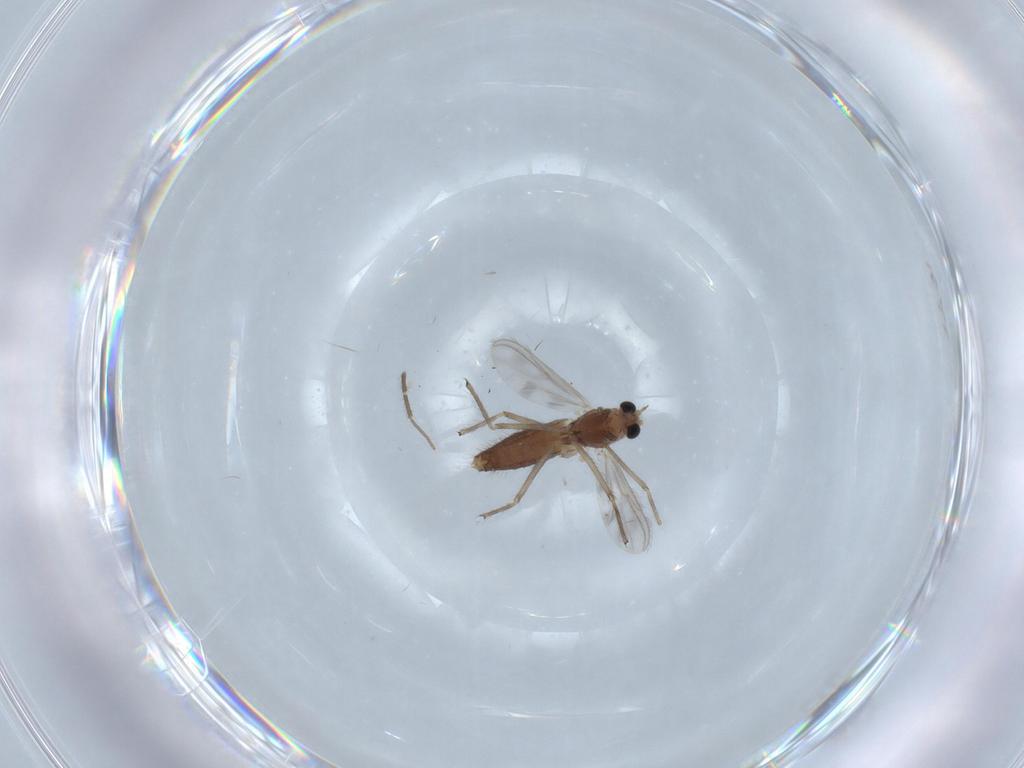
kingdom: Animalia
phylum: Arthropoda
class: Insecta
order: Diptera
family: Chironomidae
